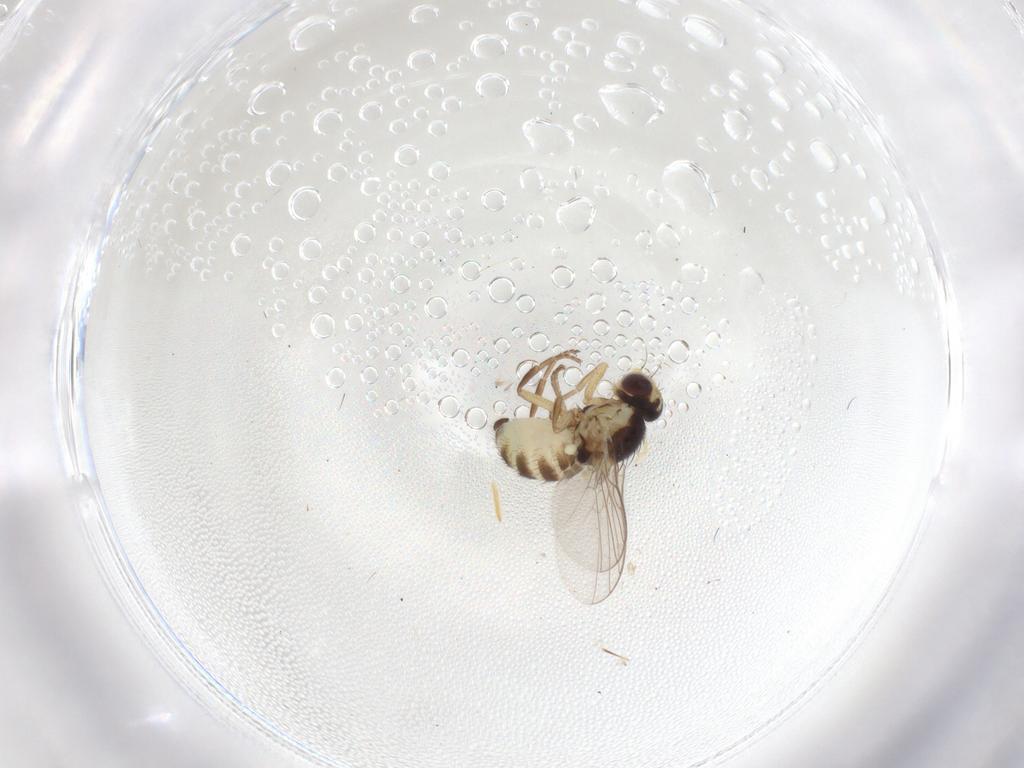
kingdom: Animalia
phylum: Arthropoda
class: Insecta
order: Diptera
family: Agromyzidae
